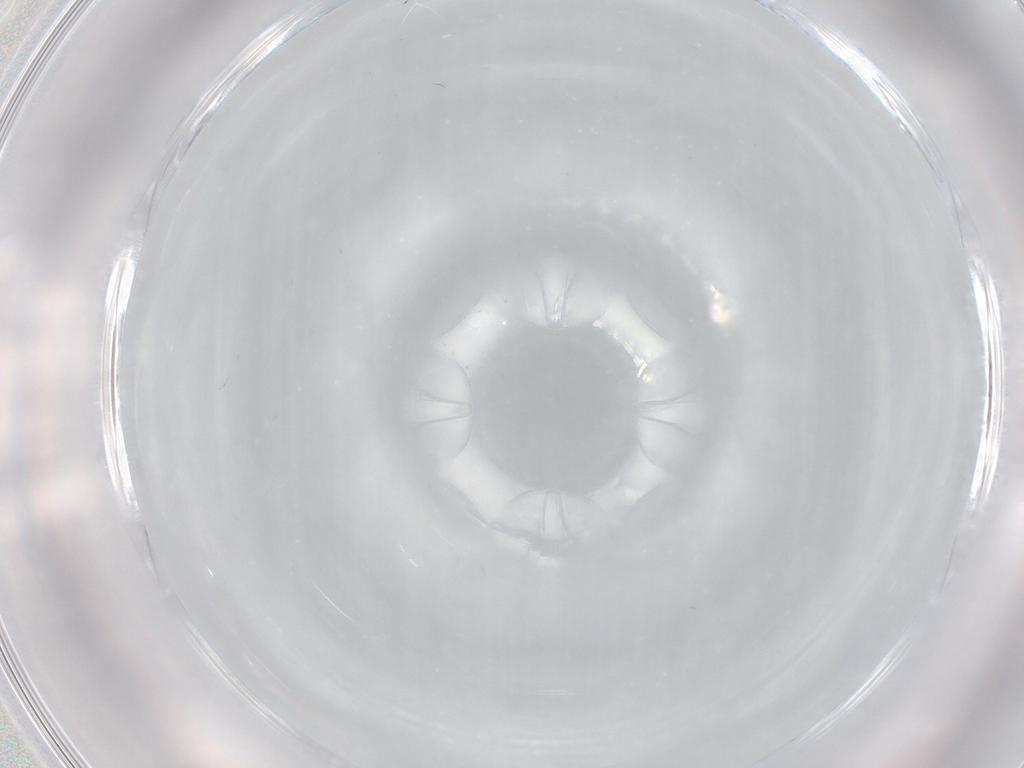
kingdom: Animalia
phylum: Arthropoda
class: Insecta
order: Diptera
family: Cecidomyiidae
